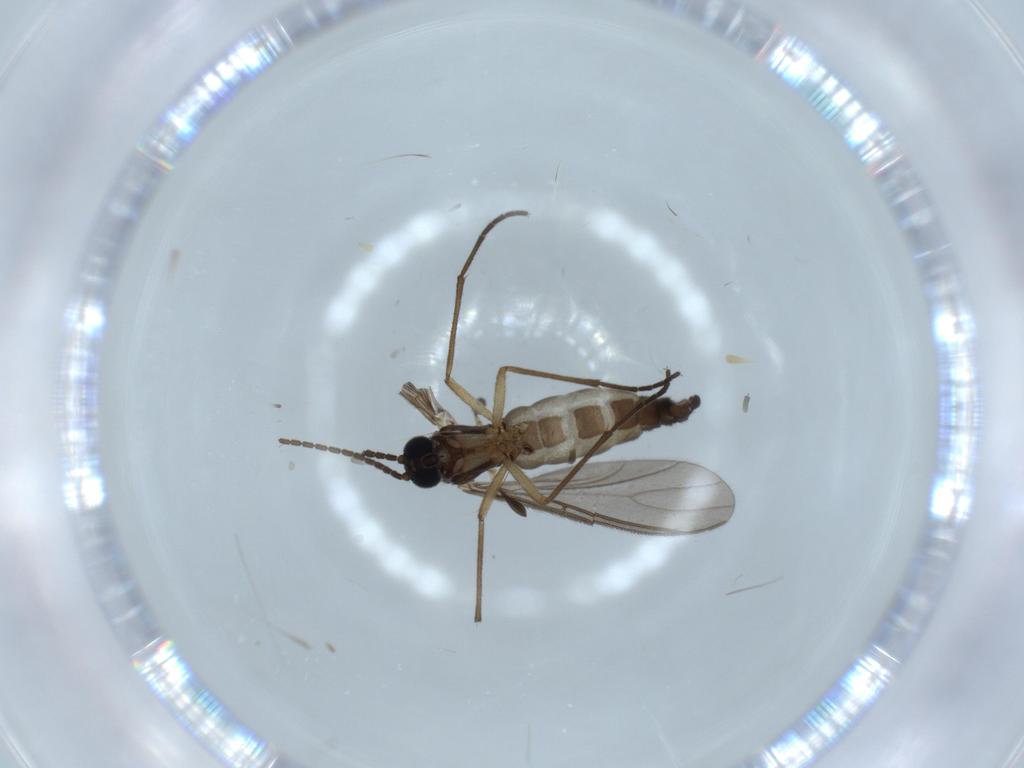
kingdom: Animalia
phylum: Arthropoda
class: Insecta
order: Diptera
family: Sciaridae
